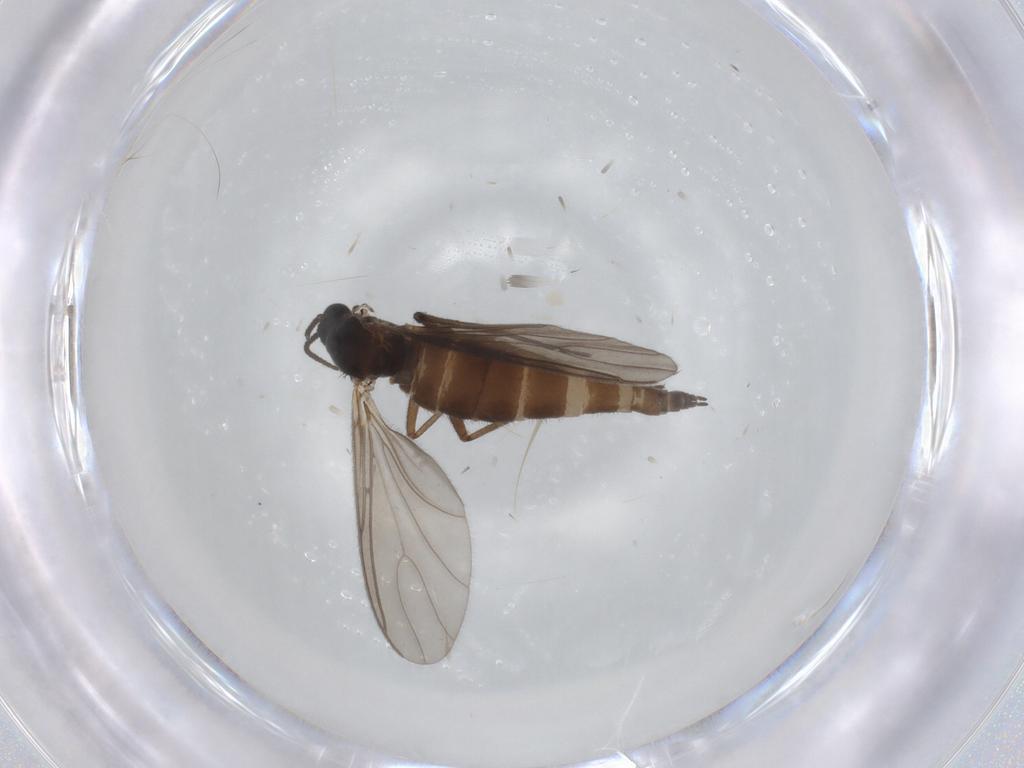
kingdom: Animalia
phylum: Arthropoda
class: Insecta
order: Diptera
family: Sciaridae
